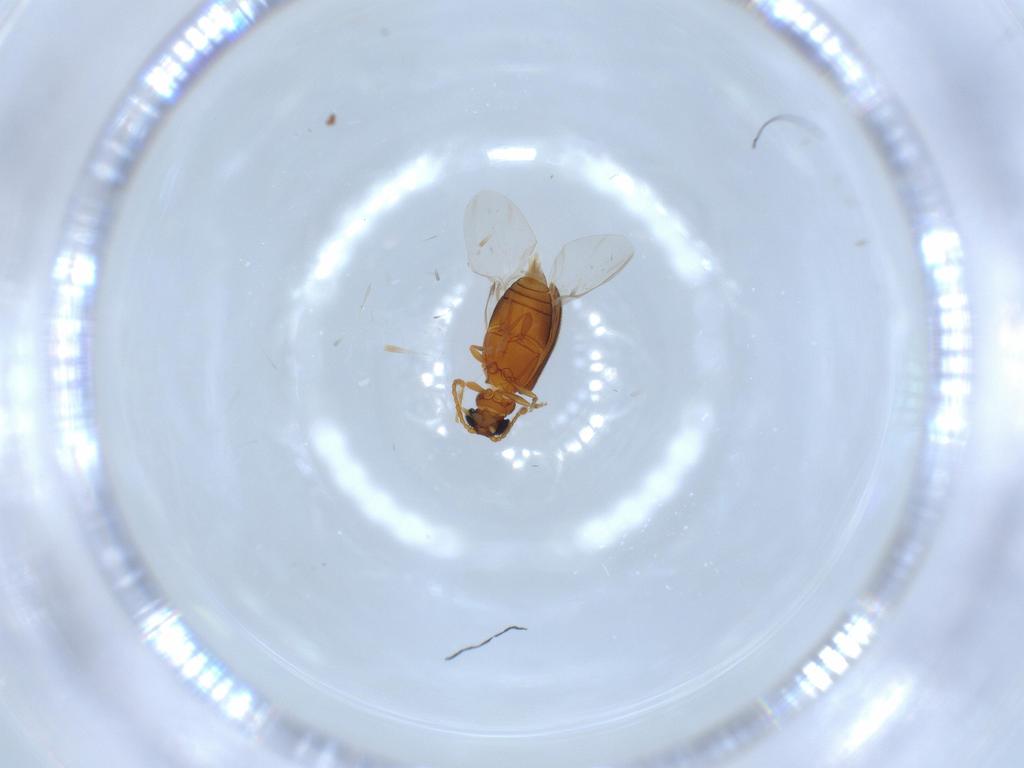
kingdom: Animalia
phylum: Arthropoda
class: Insecta
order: Coleoptera
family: Aderidae
